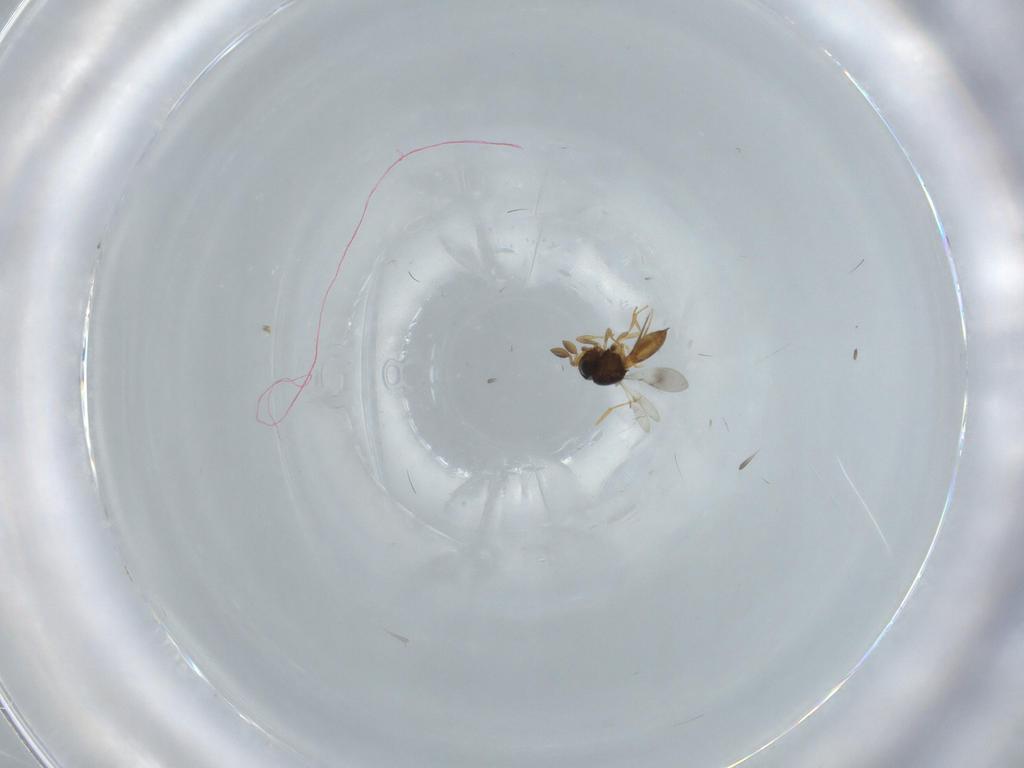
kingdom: Animalia
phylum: Arthropoda
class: Insecta
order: Hymenoptera
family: Scelionidae
